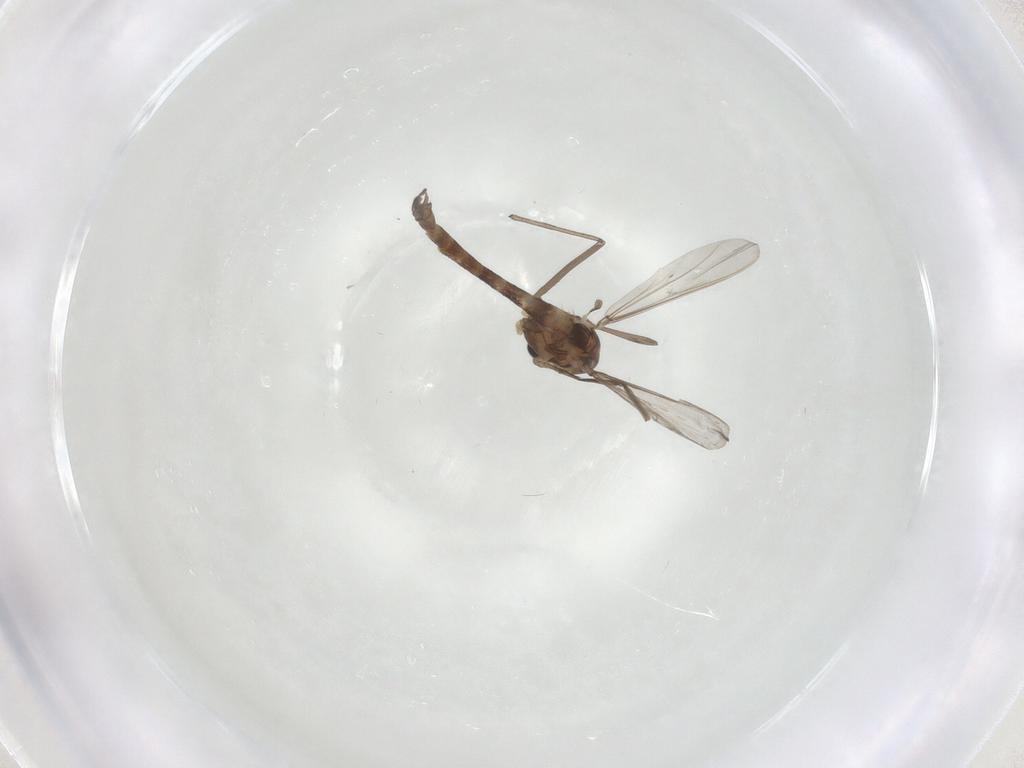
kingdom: Animalia
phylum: Arthropoda
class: Insecta
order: Diptera
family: Chironomidae
